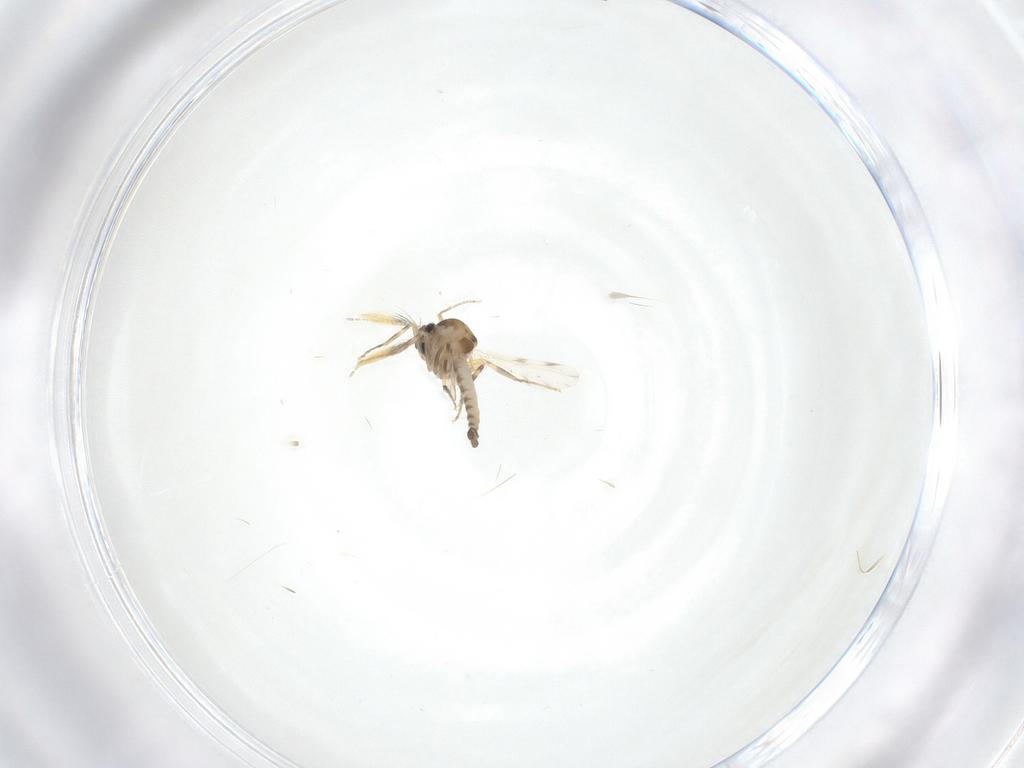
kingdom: Animalia
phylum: Arthropoda
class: Insecta
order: Diptera
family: Ceratopogonidae
